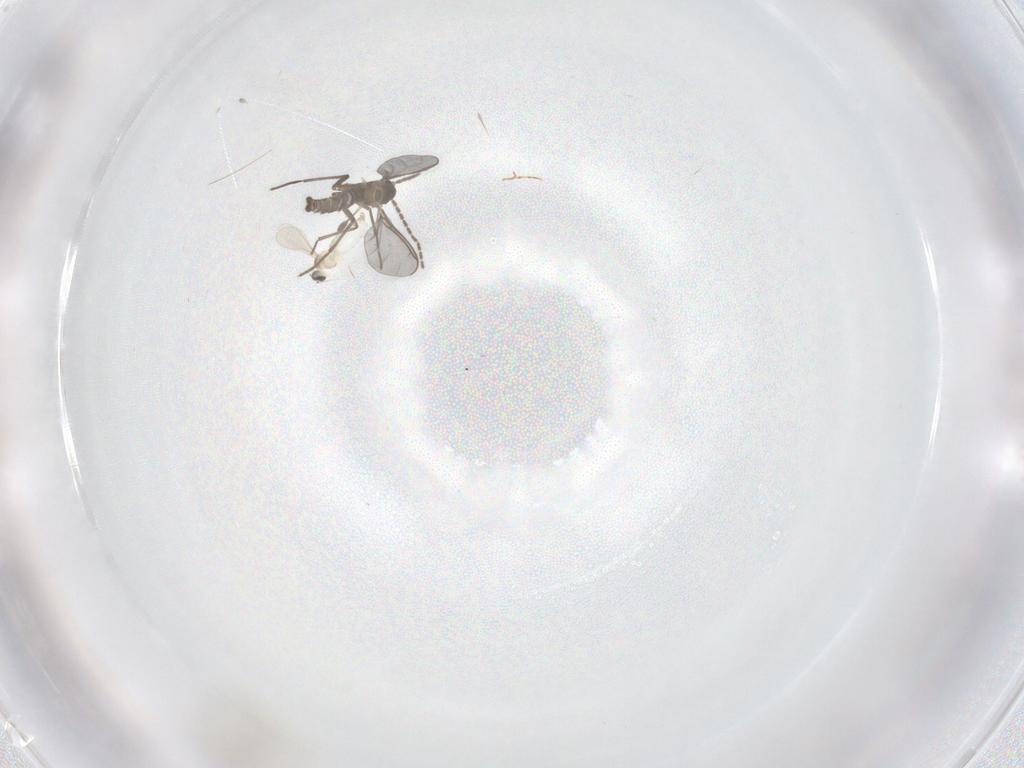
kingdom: Animalia
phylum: Arthropoda
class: Insecta
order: Diptera
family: Sciaridae
